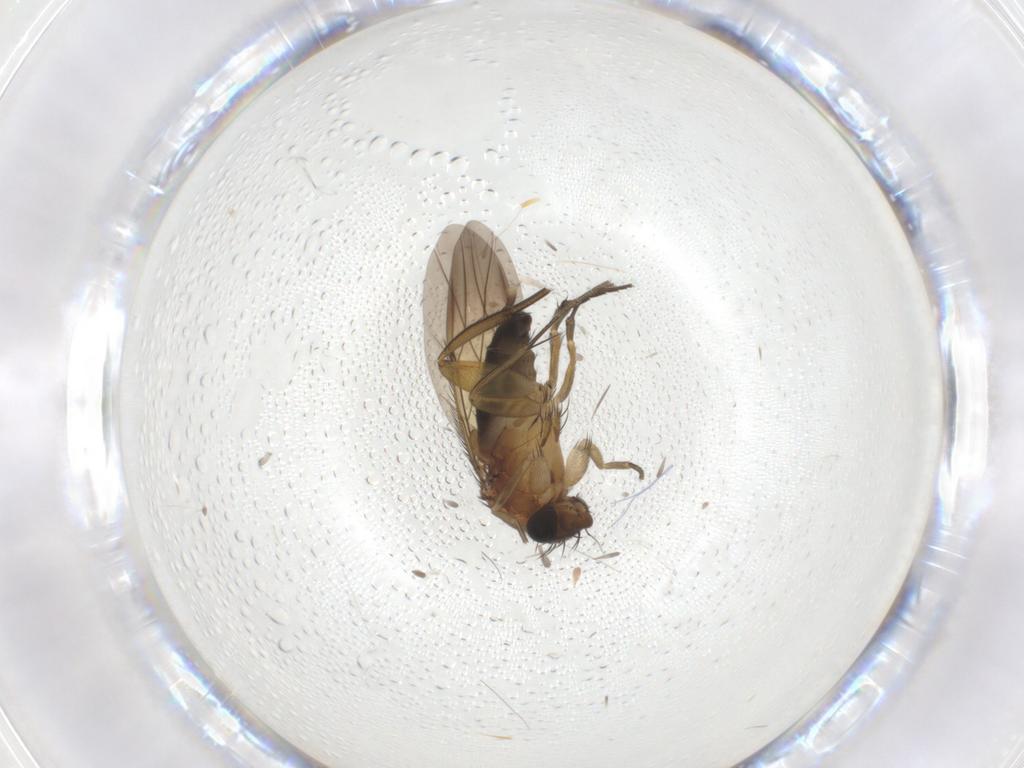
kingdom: Animalia
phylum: Arthropoda
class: Insecta
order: Diptera
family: Phoridae
